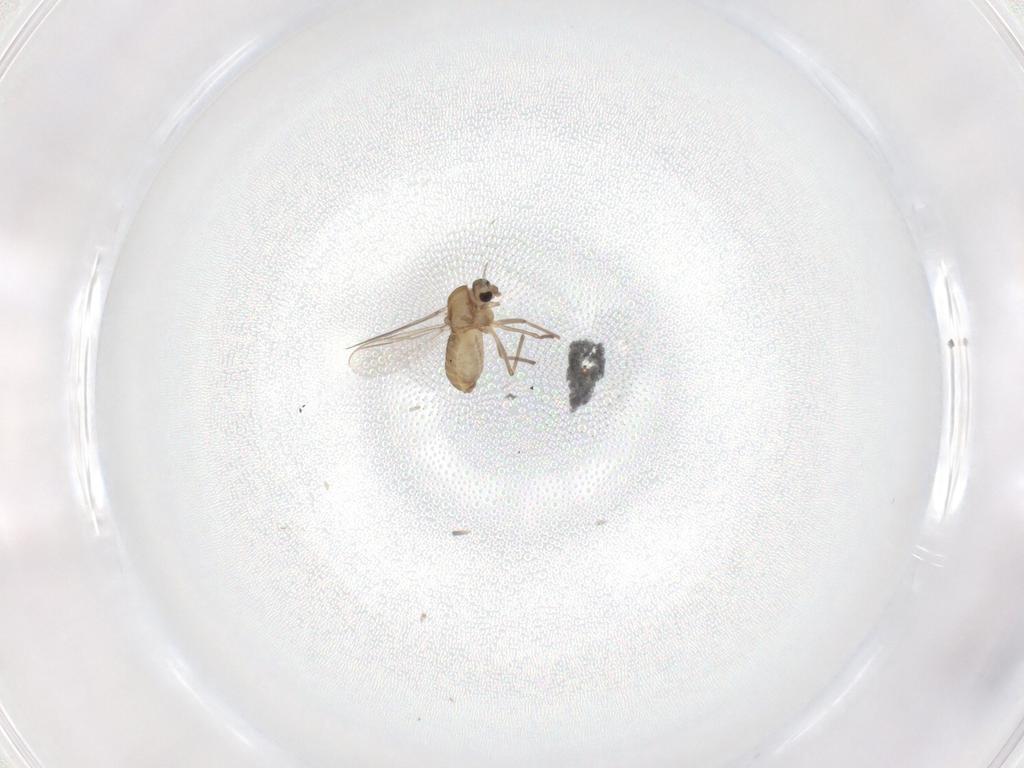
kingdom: Animalia
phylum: Arthropoda
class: Insecta
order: Diptera
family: Chironomidae
